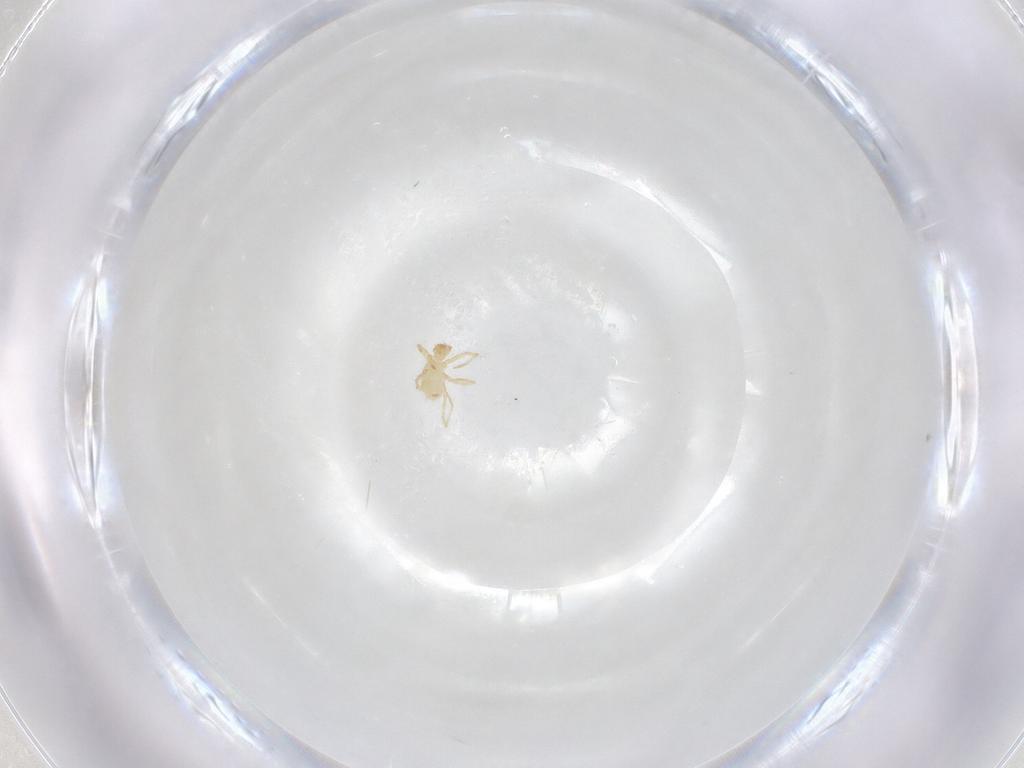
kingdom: Animalia
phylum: Arthropoda
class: Arachnida
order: Trombidiformes
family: Erythraeidae
